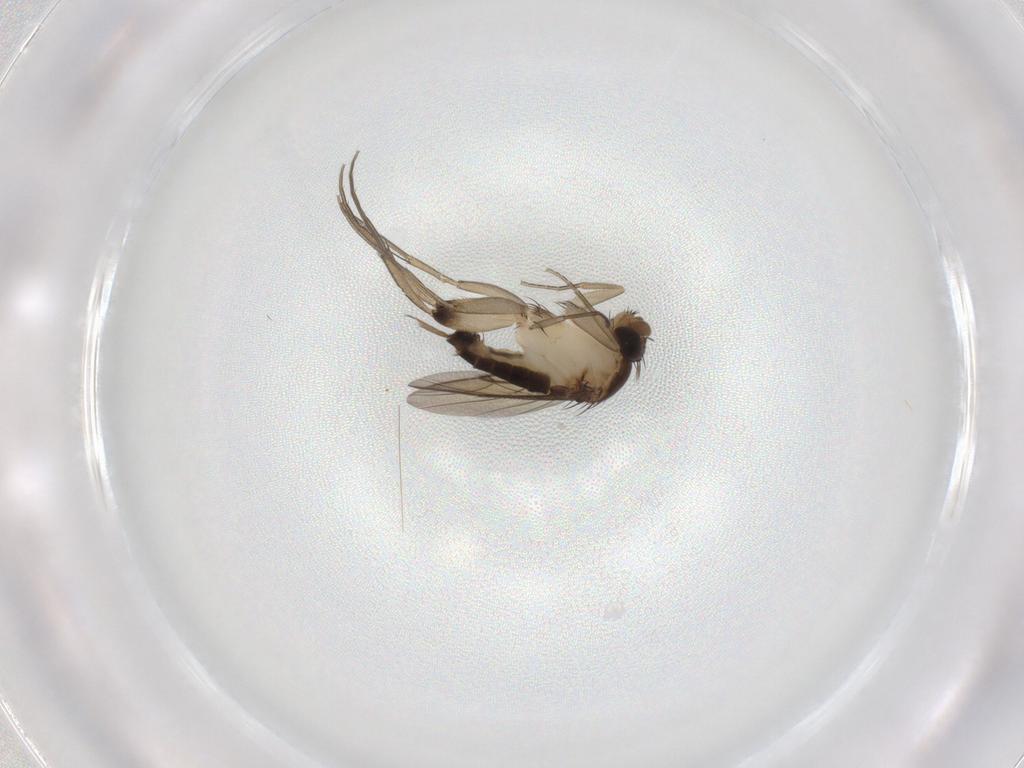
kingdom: Animalia
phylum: Arthropoda
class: Insecta
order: Diptera
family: Phoridae
